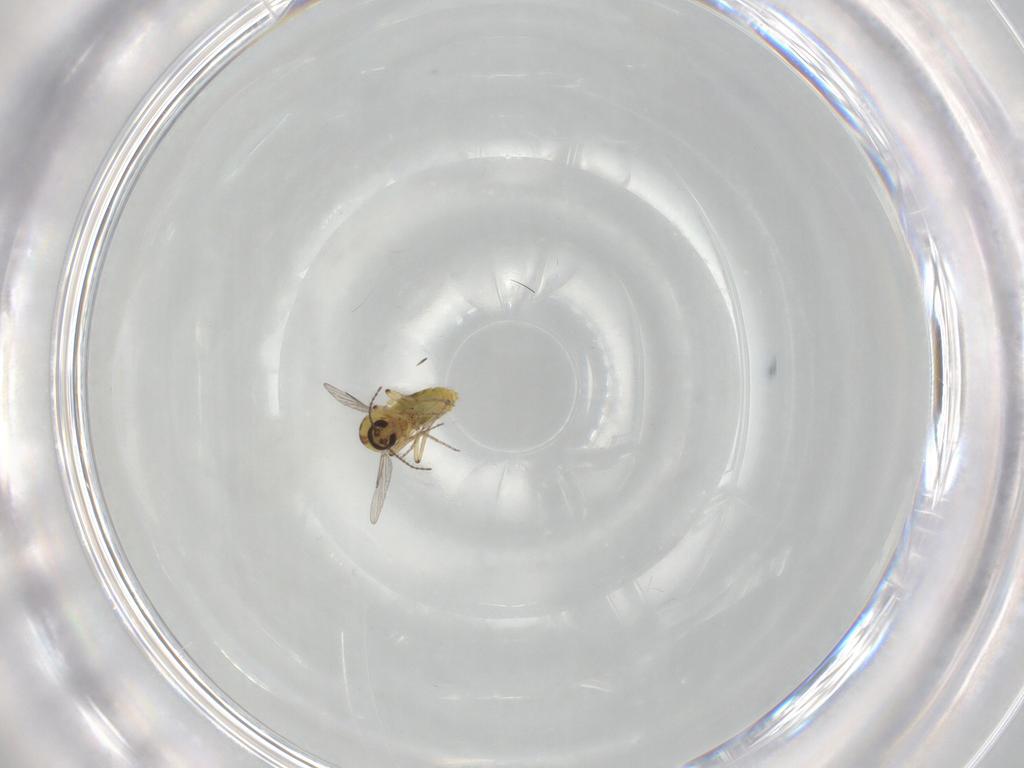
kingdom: Animalia
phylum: Arthropoda
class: Insecta
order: Diptera
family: Ceratopogonidae
